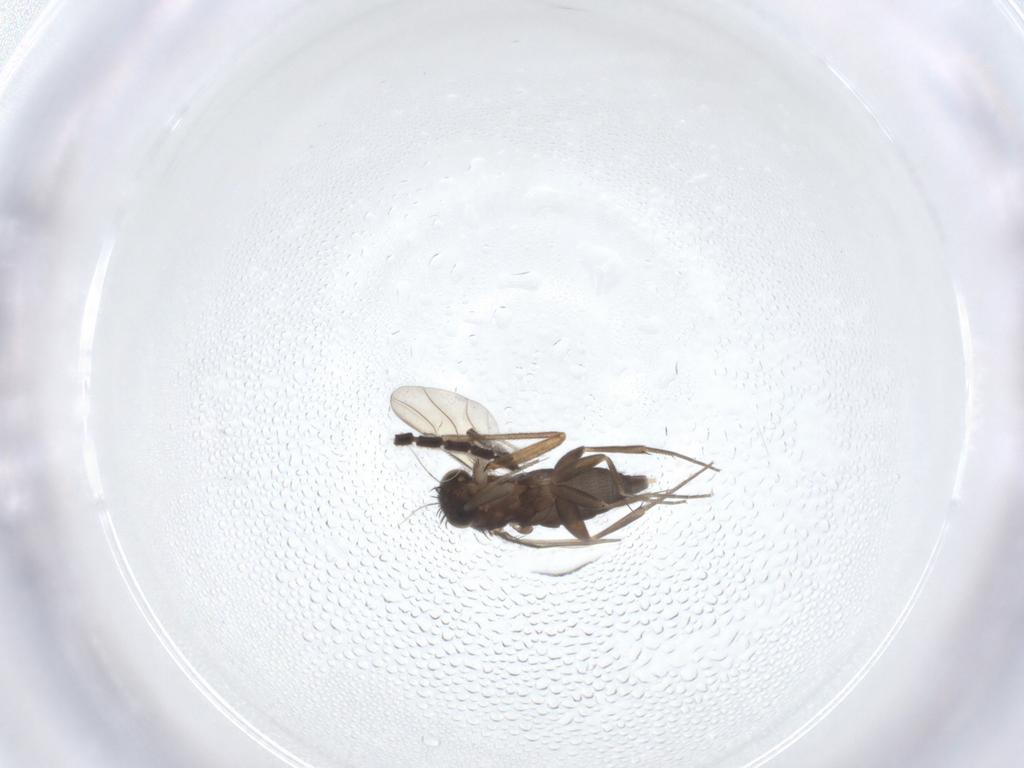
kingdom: Animalia
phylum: Arthropoda
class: Insecta
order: Diptera
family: Phoridae
